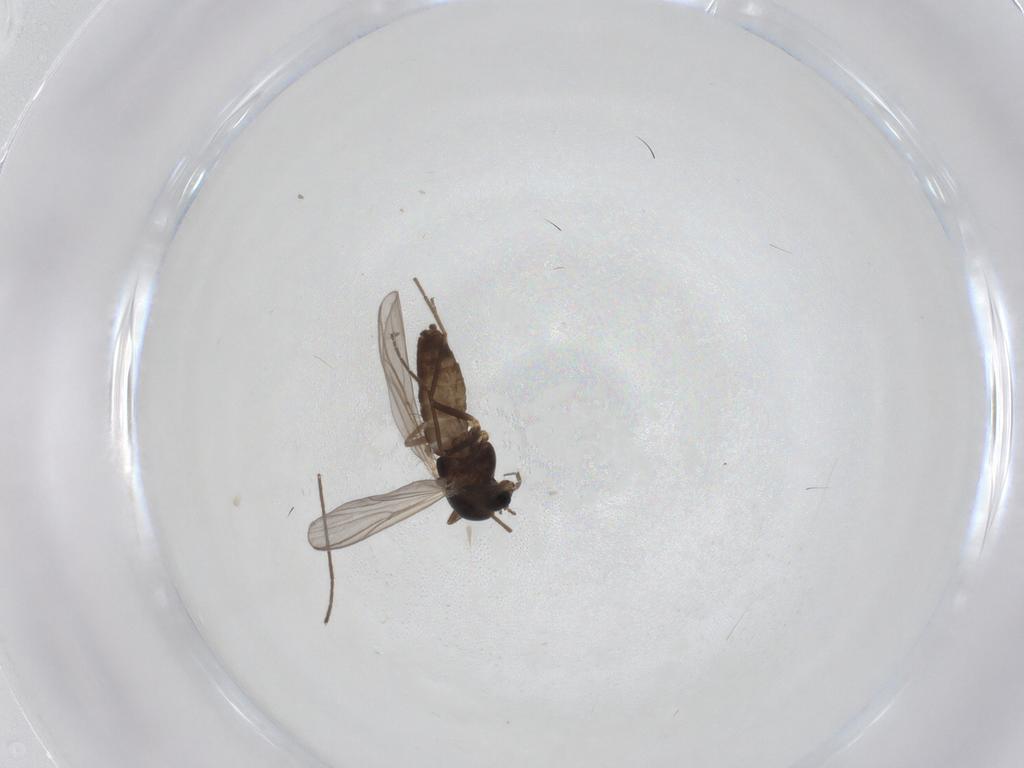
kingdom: Animalia
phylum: Arthropoda
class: Insecta
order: Diptera
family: Chironomidae
